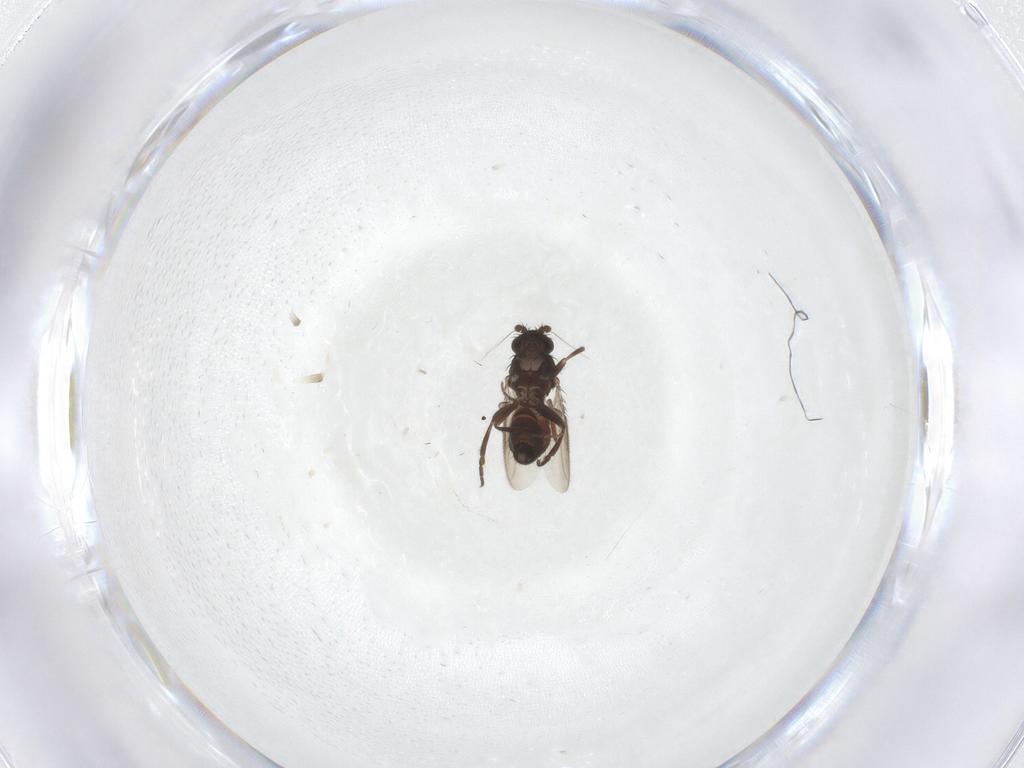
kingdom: Animalia
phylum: Arthropoda
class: Insecta
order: Diptera
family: Sphaeroceridae
